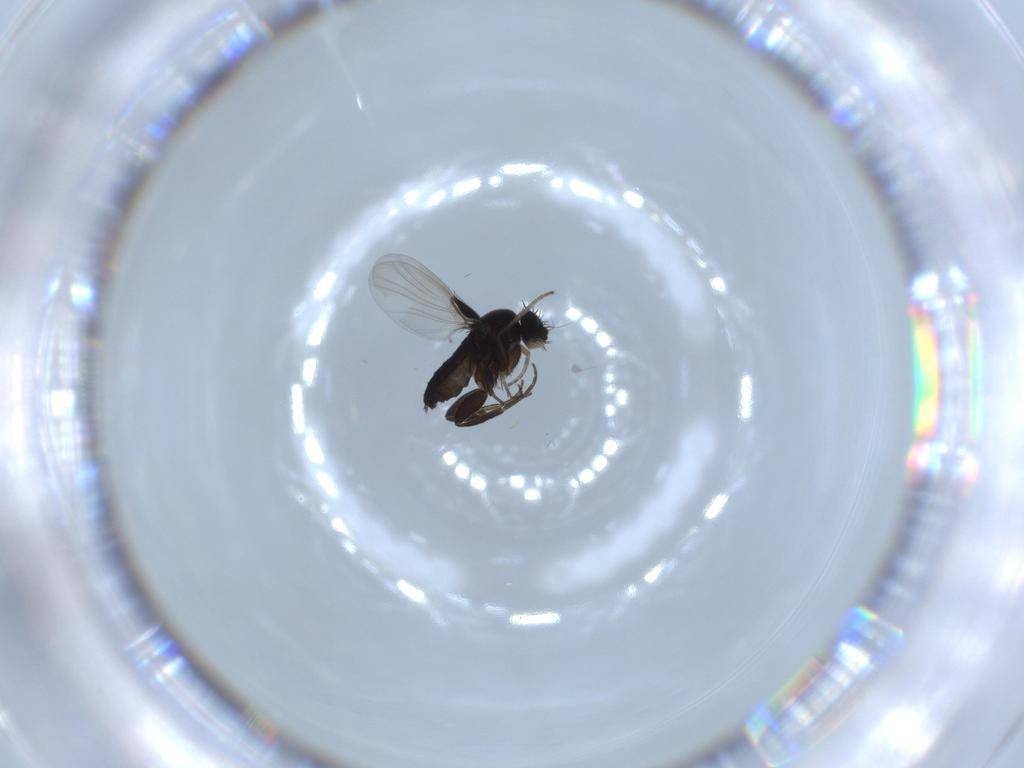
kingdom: Animalia
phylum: Arthropoda
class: Insecta
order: Diptera
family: Phoridae
